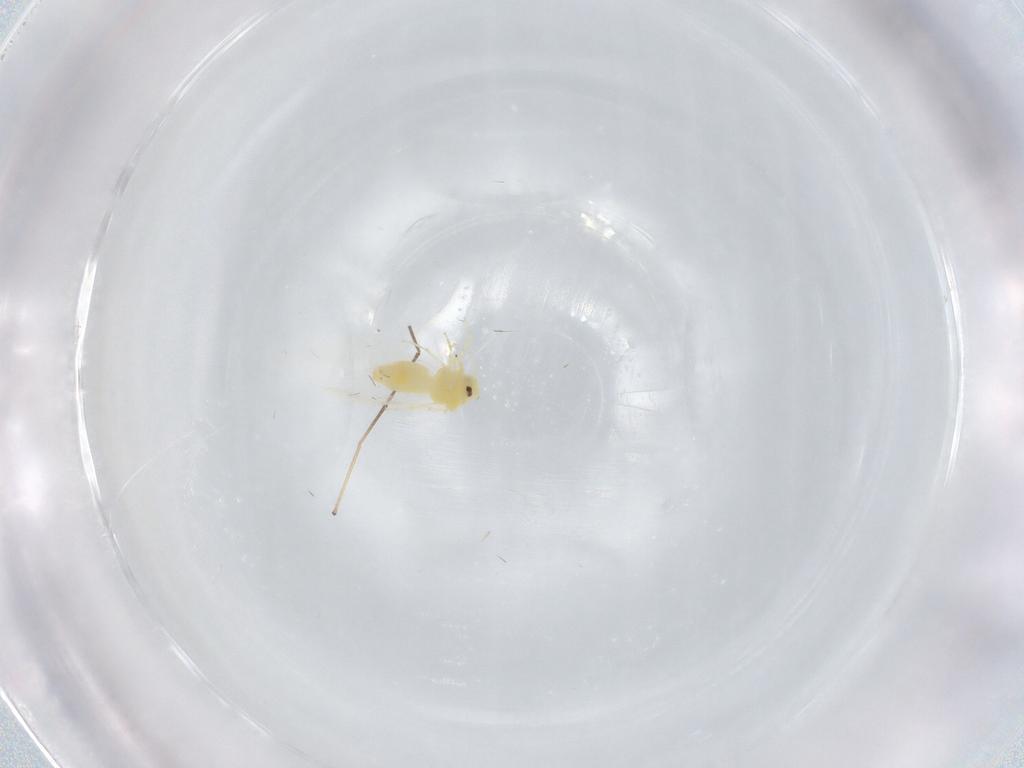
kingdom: Animalia
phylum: Arthropoda
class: Insecta
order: Hemiptera
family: Aleyrodidae
